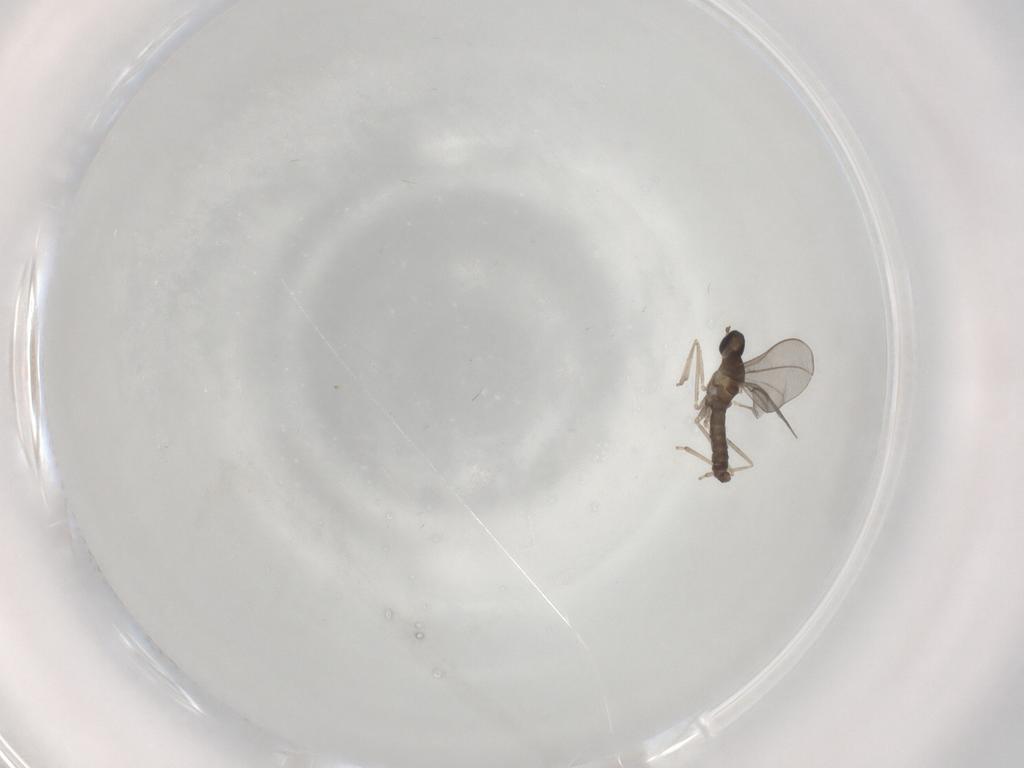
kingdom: Animalia
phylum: Arthropoda
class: Insecta
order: Diptera
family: Cecidomyiidae
